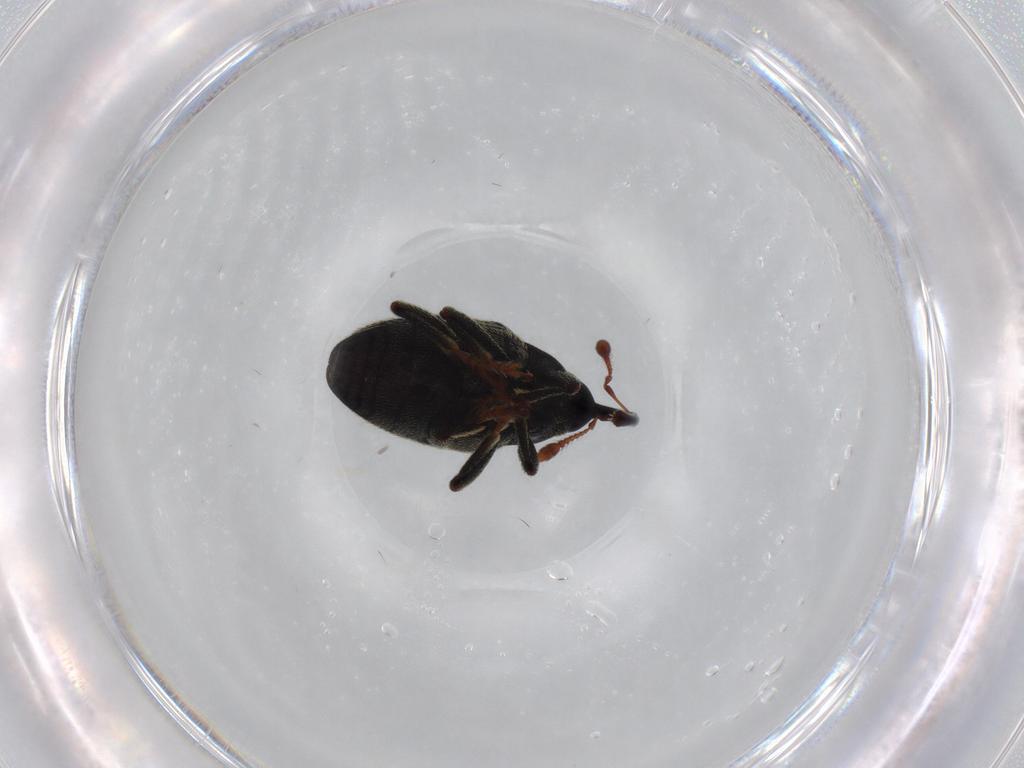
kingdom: Animalia
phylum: Arthropoda
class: Insecta
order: Coleoptera
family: Curculionidae
